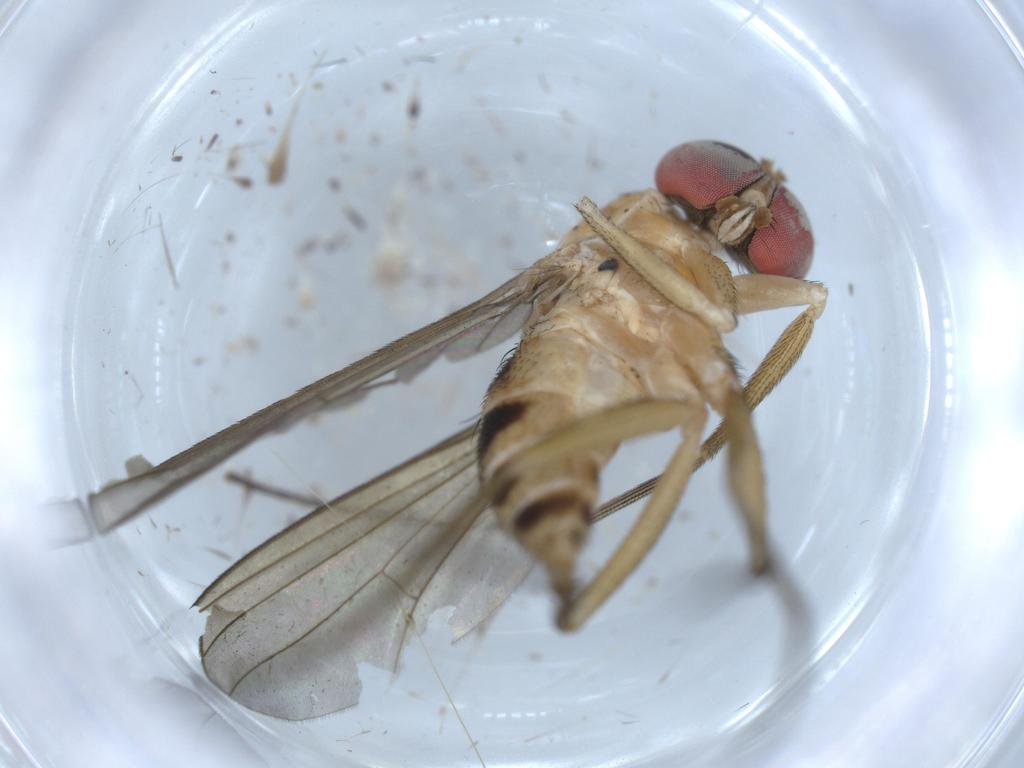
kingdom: Animalia
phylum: Arthropoda
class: Insecta
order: Diptera
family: Dolichopodidae
